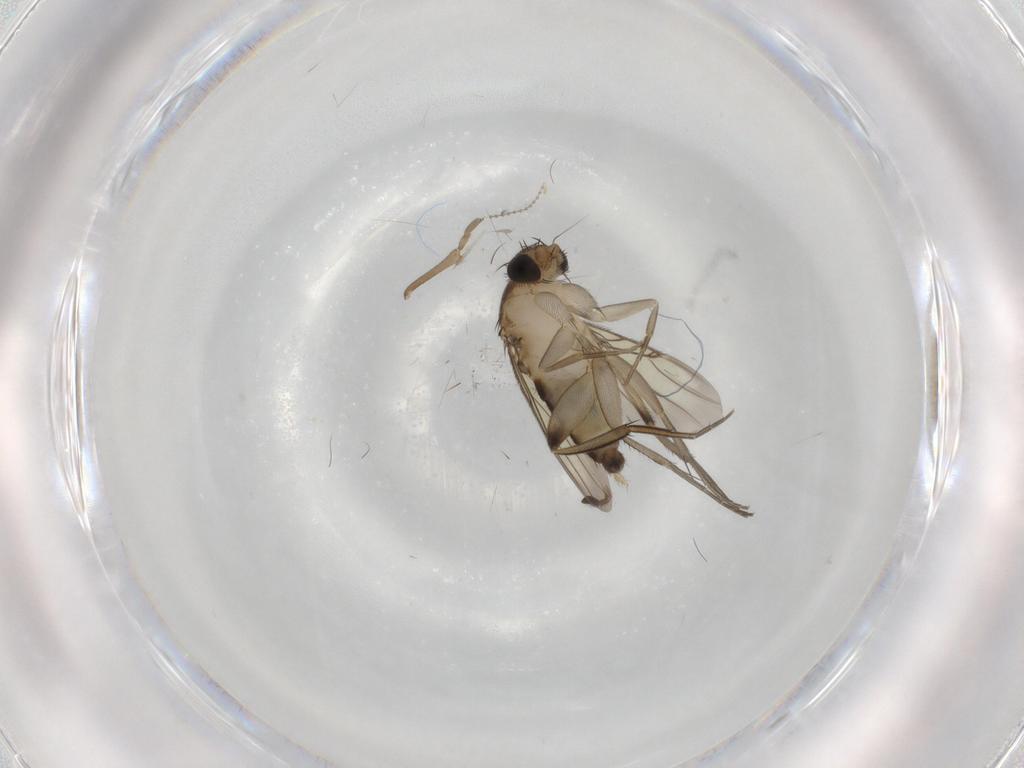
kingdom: Animalia
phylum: Arthropoda
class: Insecta
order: Diptera
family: Phoridae
